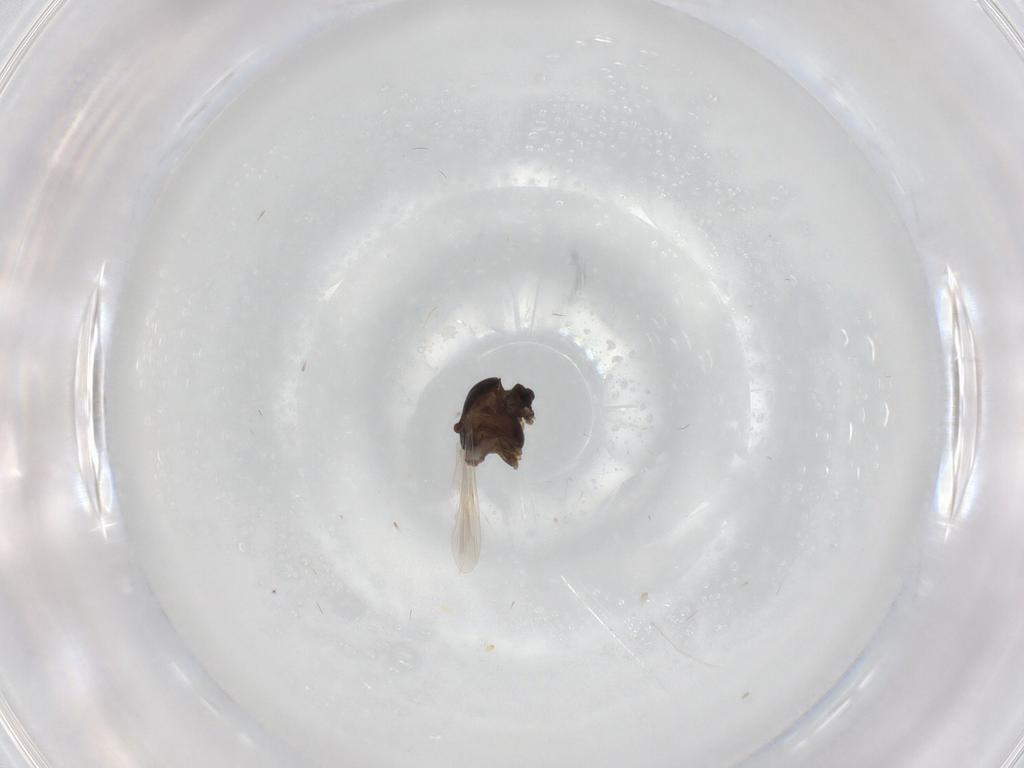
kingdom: Animalia
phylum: Arthropoda
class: Insecta
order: Diptera
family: Chironomidae
